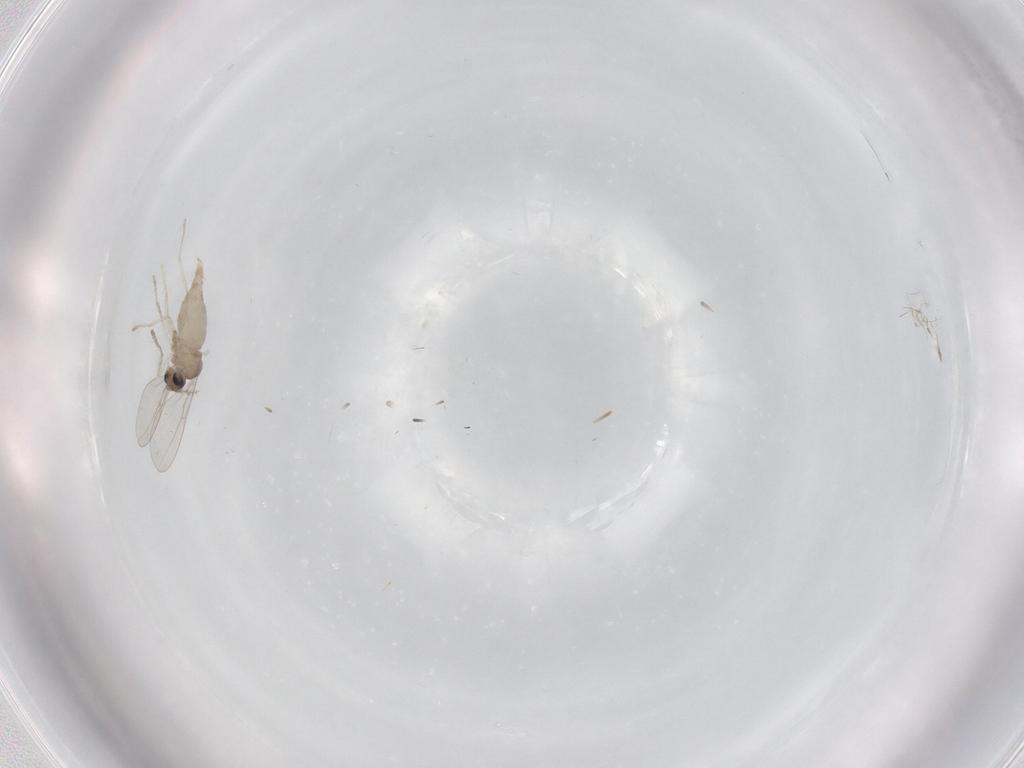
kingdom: Animalia
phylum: Arthropoda
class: Insecta
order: Diptera
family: Cecidomyiidae
